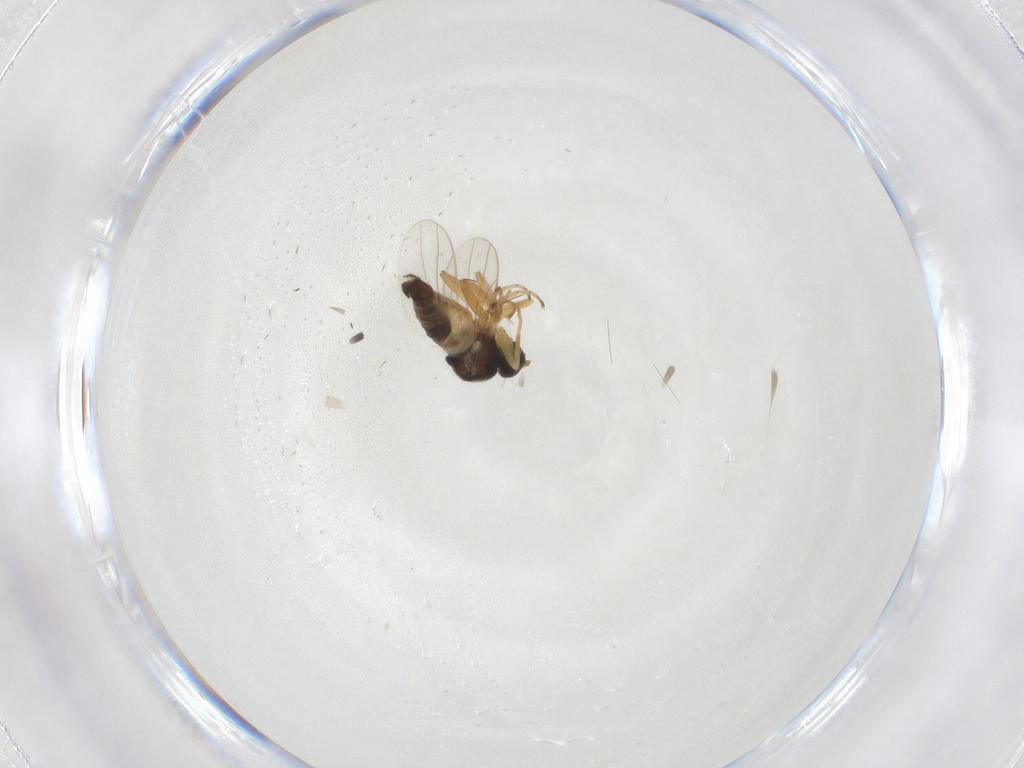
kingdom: Animalia
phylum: Arthropoda
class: Insecta
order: Diptera
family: Hybotidae
